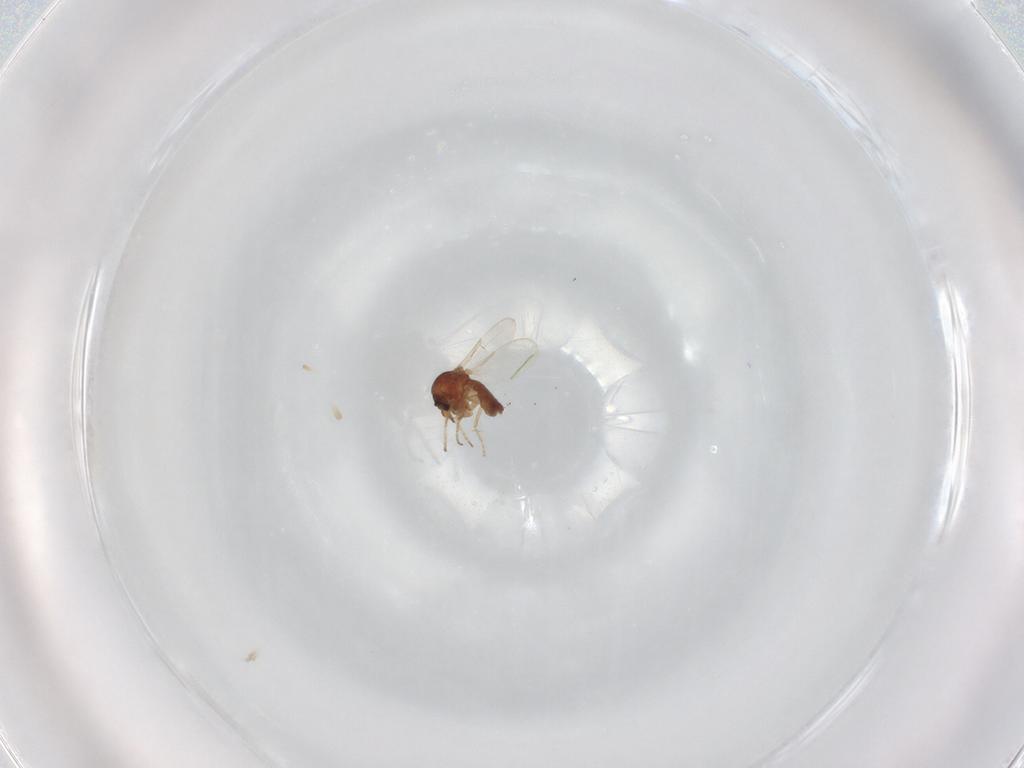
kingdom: Animalia
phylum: Arthropoda
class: Insecta
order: Diptera
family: Ceratopogonidae
